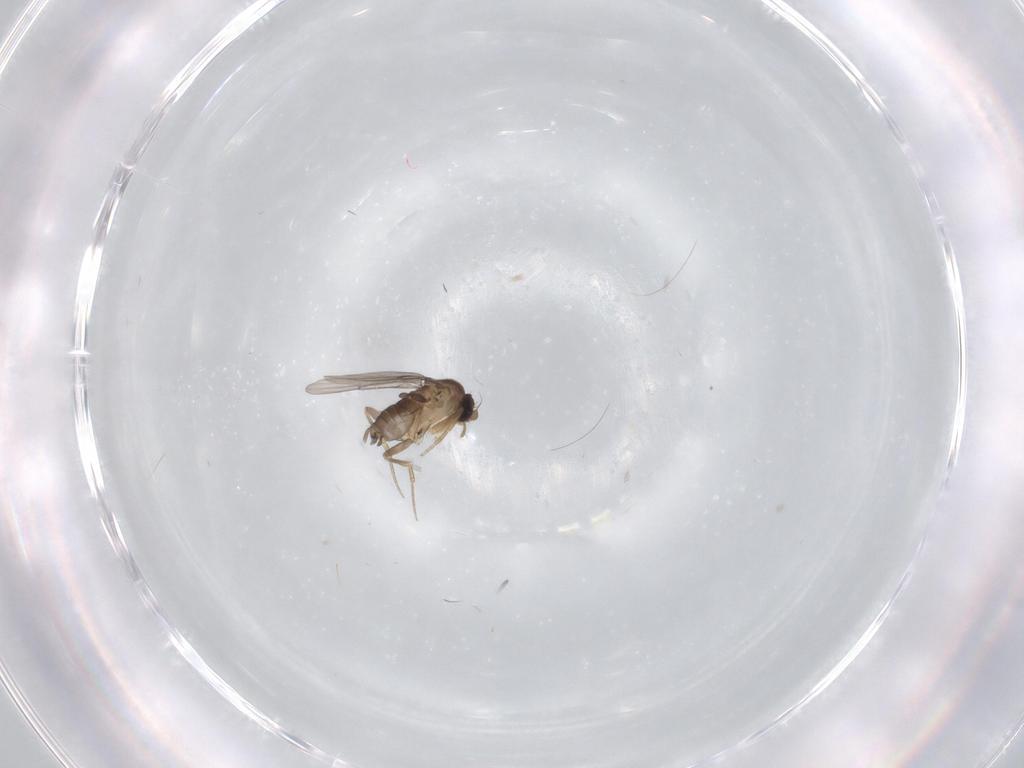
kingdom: Animalia
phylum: Arthropoda
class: Insecta
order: Diptera
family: Phoridae
